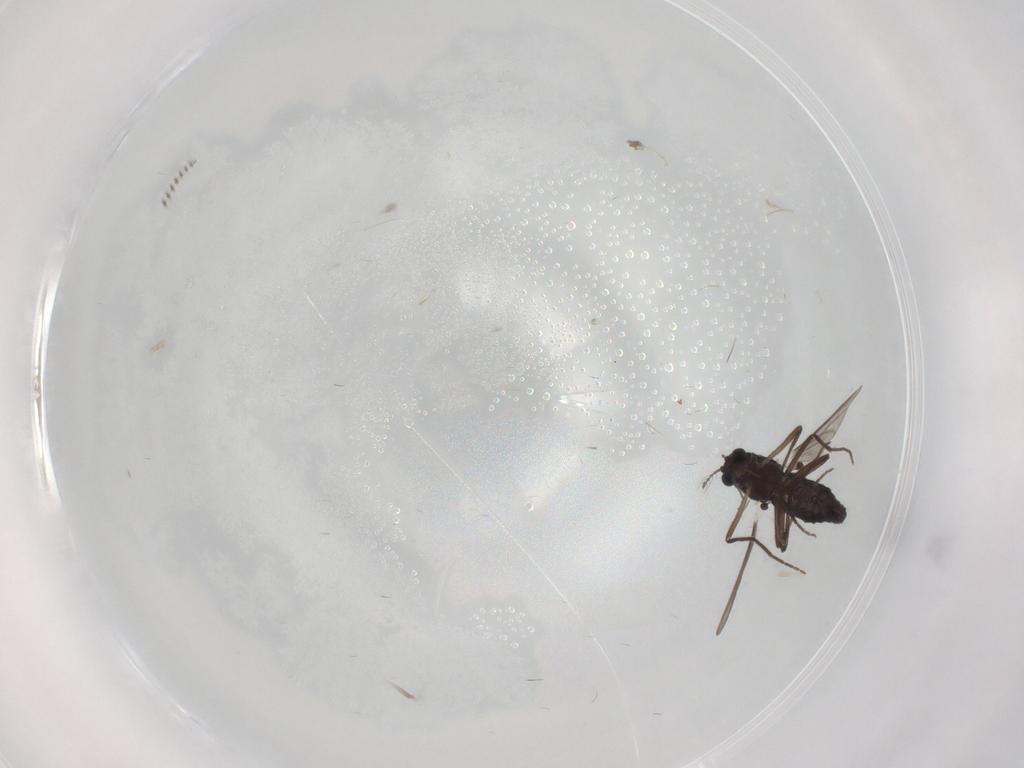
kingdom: Animalia
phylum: Arthropoda
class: Insecta
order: Diptera
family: Chironomidae
